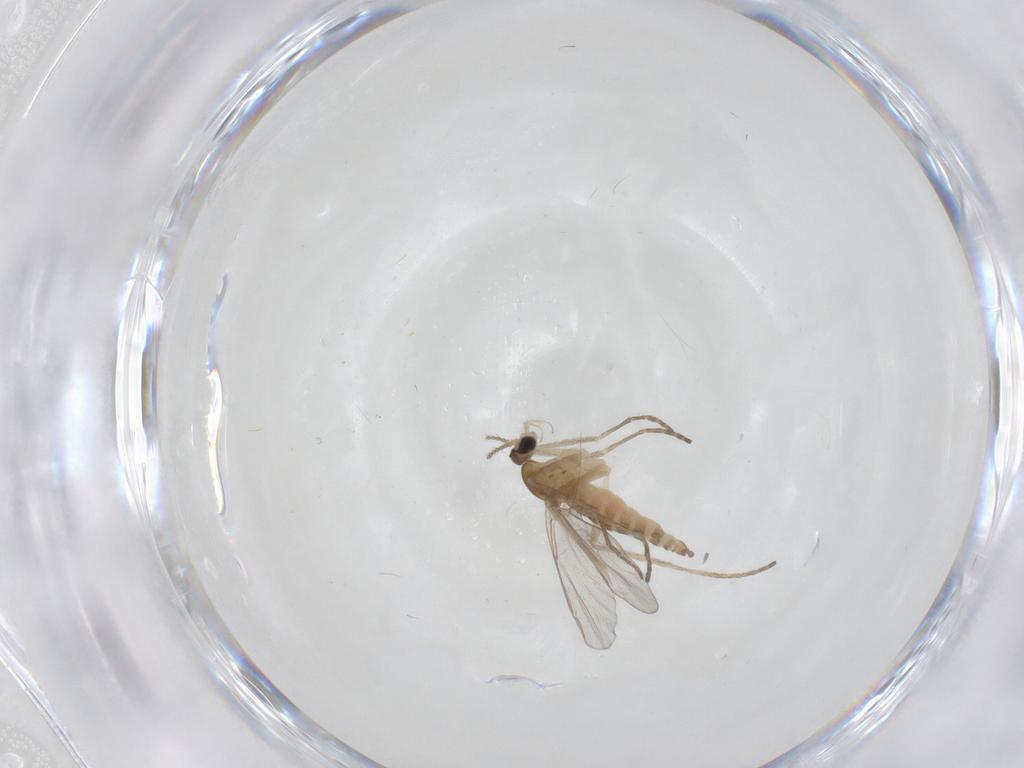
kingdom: Animalia
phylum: Arthropoda
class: Insecta
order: Diptera
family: Cecidomyiidae
